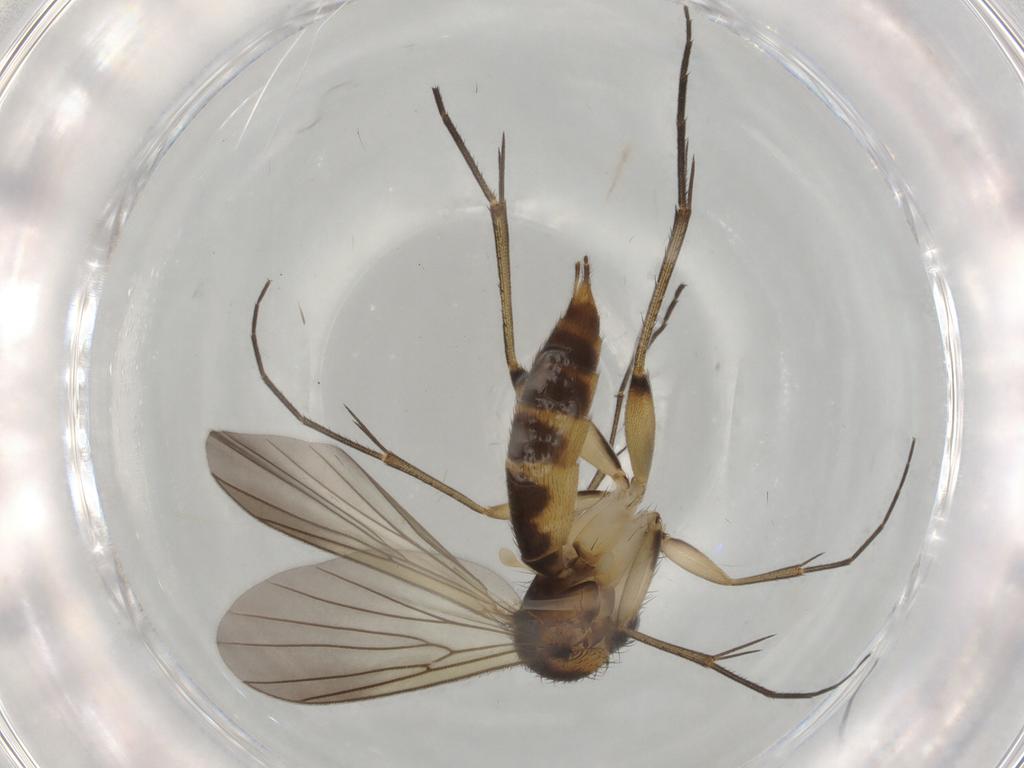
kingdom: Animalia
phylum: Arthropoda
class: Insecta
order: Diptera
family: Mycetophilidae
